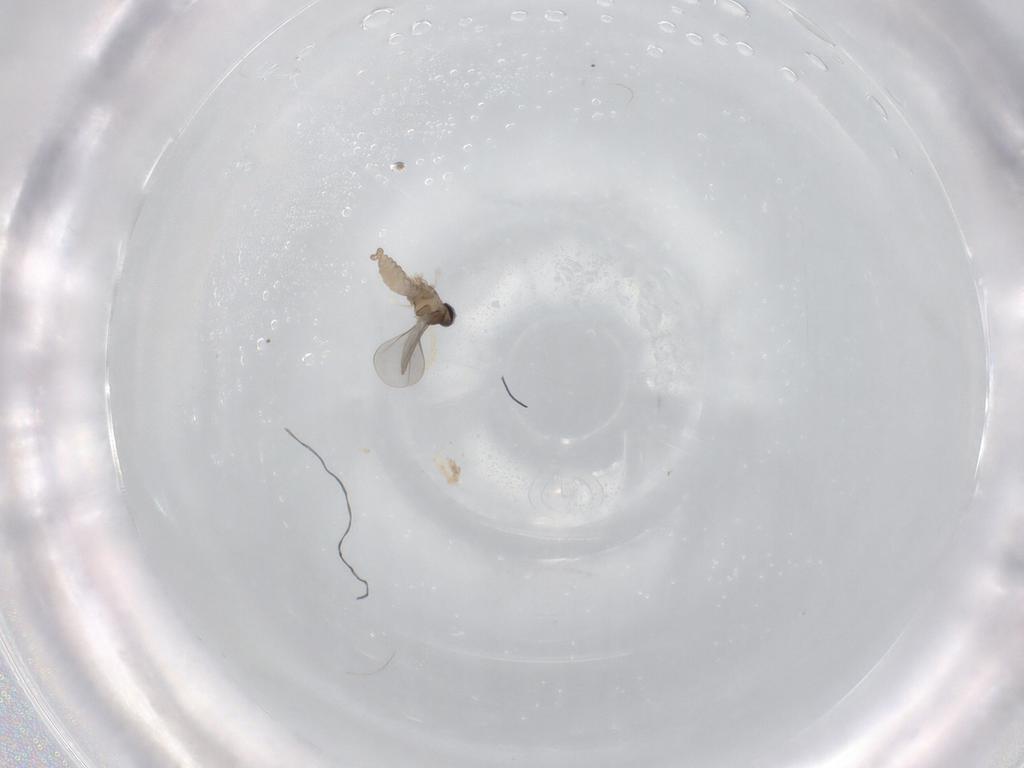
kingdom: Animalia
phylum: Arthropoda
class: Insecta
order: Diptera
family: Cecidomyiidae
